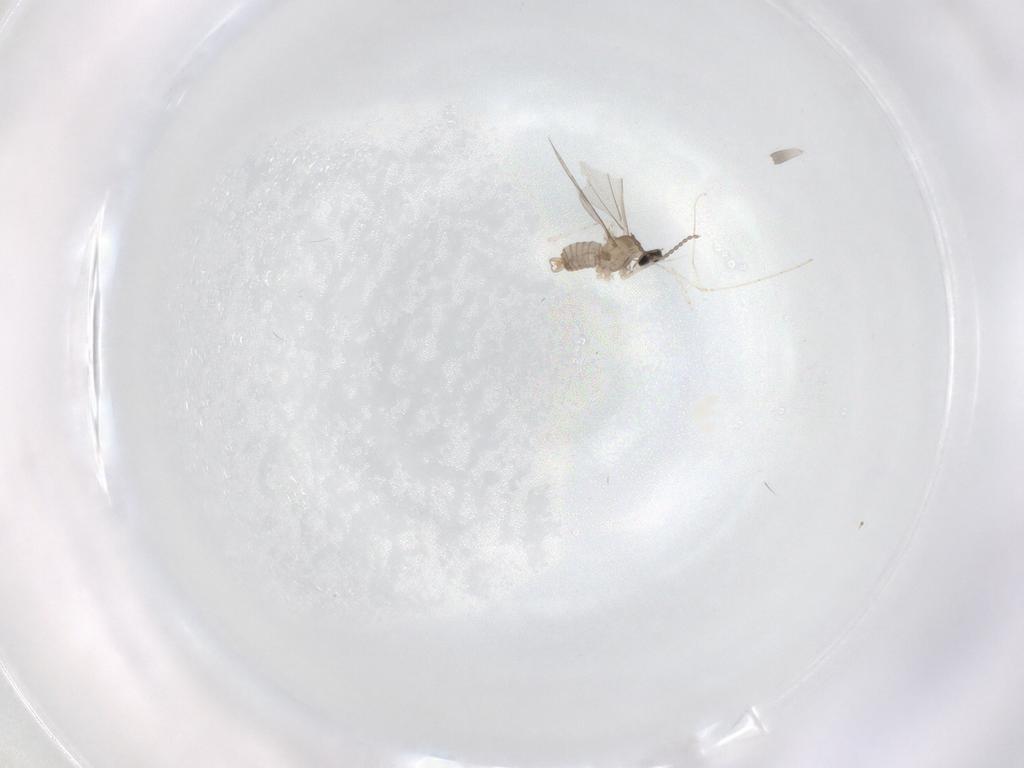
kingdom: Animalia
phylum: Arthropoda
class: Insecta
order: Diptera
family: Cecidomyiidae
